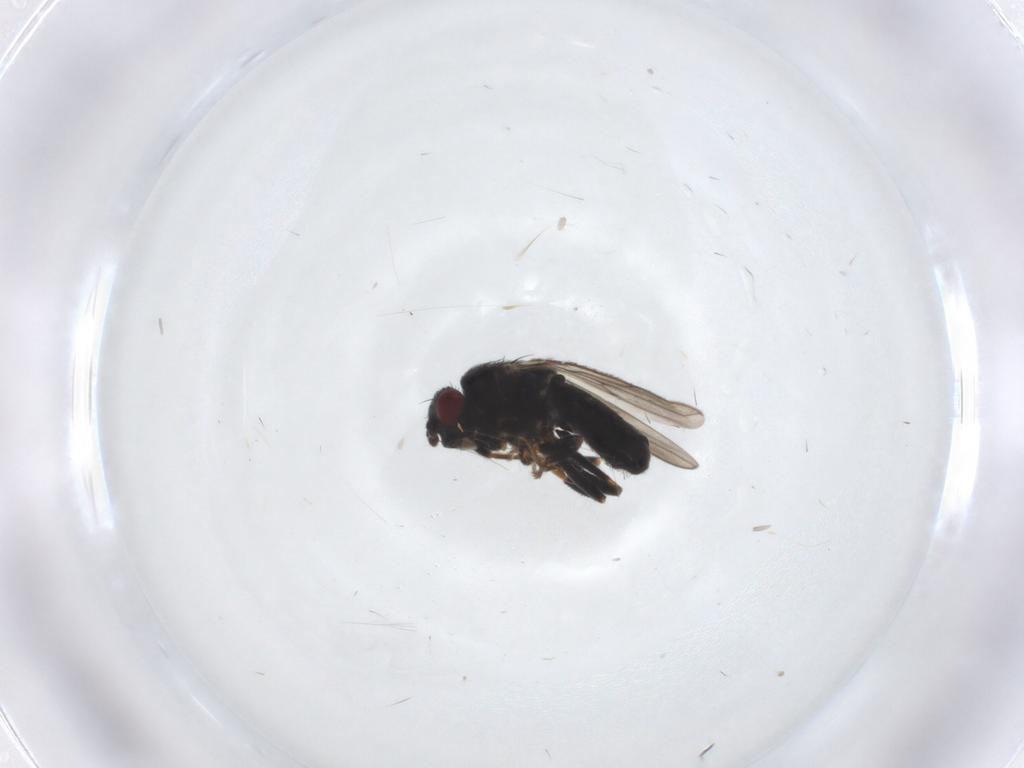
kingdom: Animalia
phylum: Arthropoda
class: Insecta
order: Diptera
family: Sphaeroceridae
